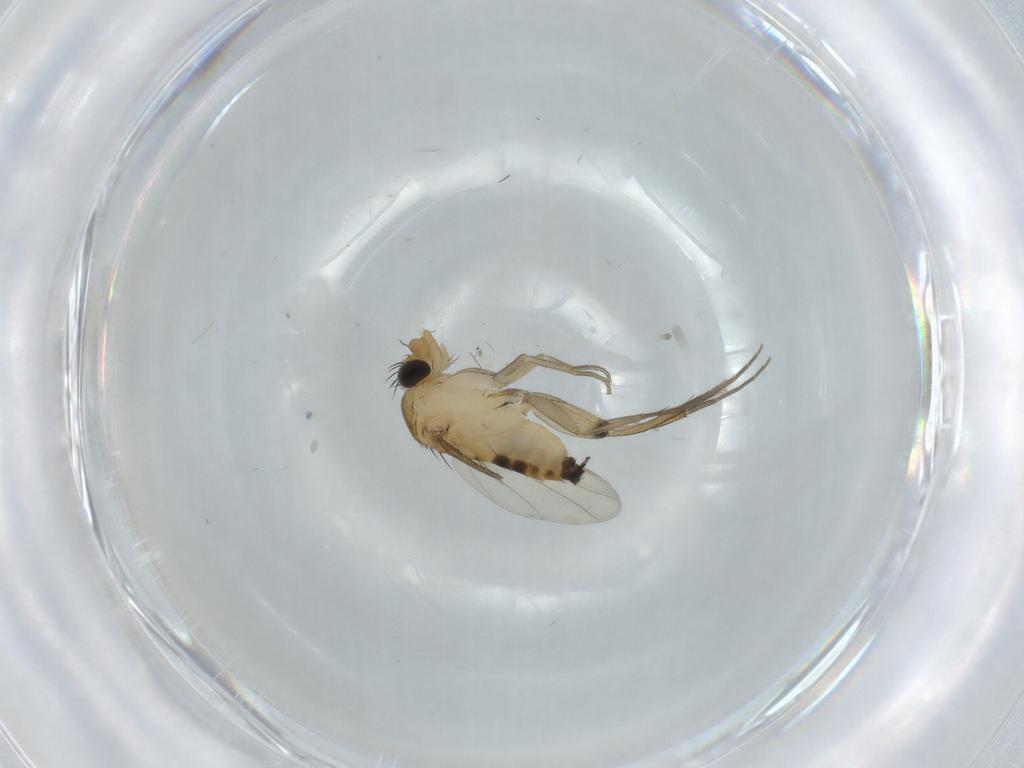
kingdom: Animalia
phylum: Arthropoda
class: Insecta
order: Diptera
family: Phoridae
